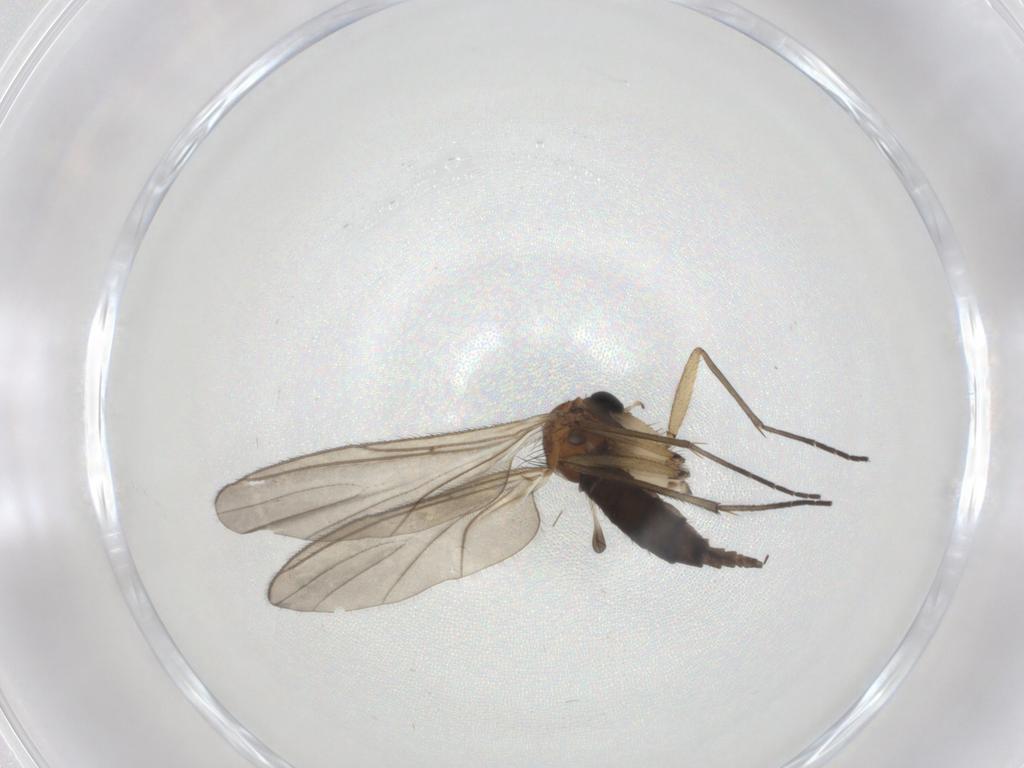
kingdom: Animalia
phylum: Arthropoda
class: Insecta
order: Diptera
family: Sciaridae
